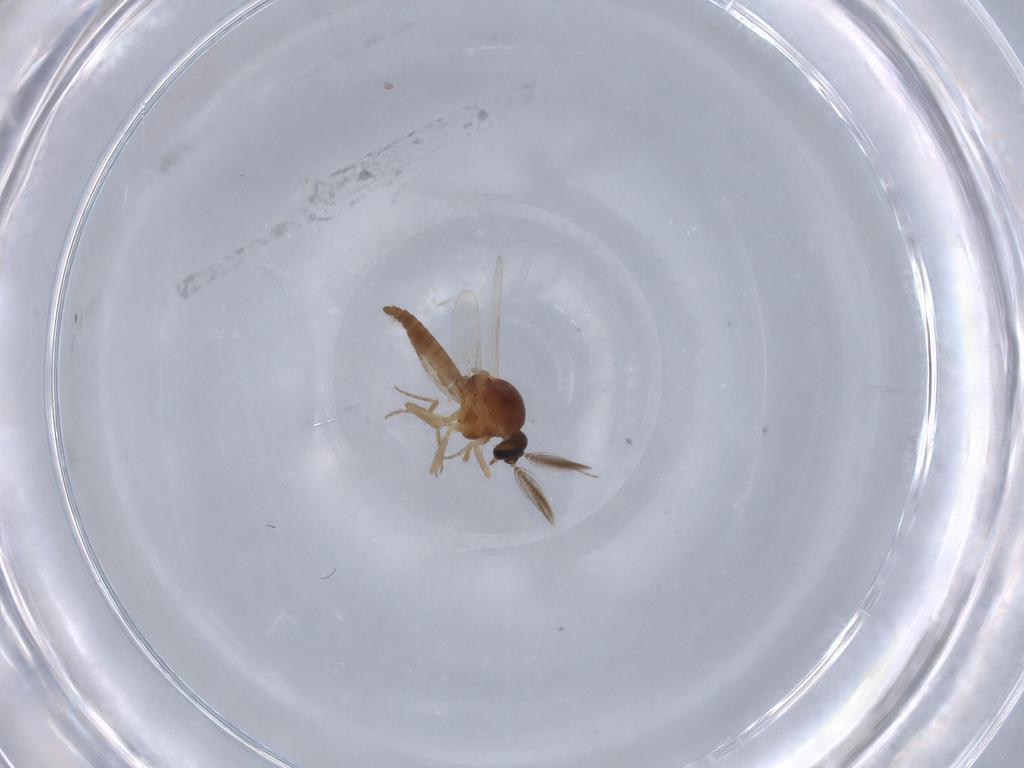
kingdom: Animalia
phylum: Arthropoda
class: Insecta
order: Diptera
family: Ceratopogonidae
